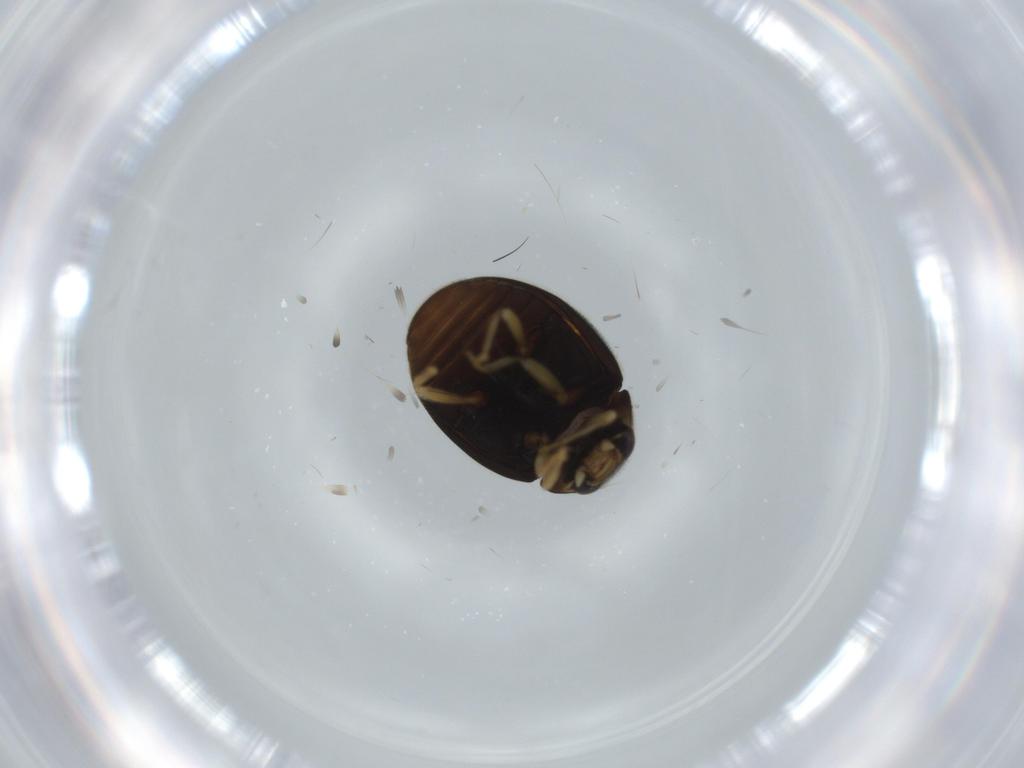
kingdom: Animalia
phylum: Arthropoda
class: Insecta
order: Coleoptera
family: Coccinellidae
